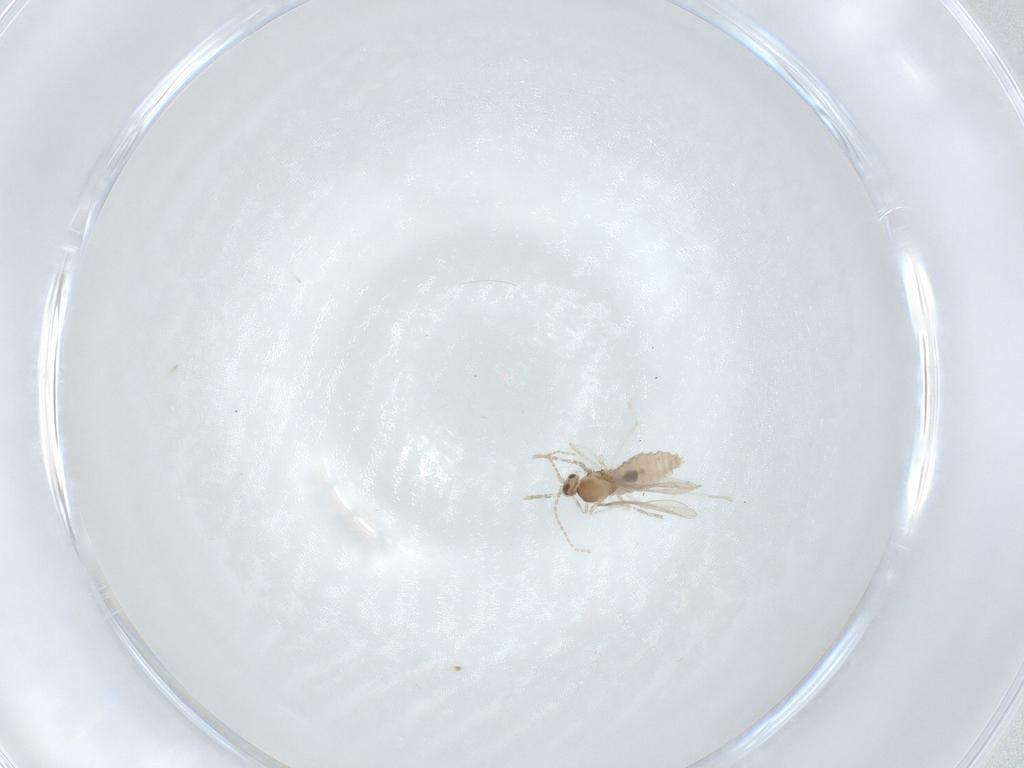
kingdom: Animalia
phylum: Arthropoda
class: Insecta
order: Diptera
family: Cecidomyiidae
